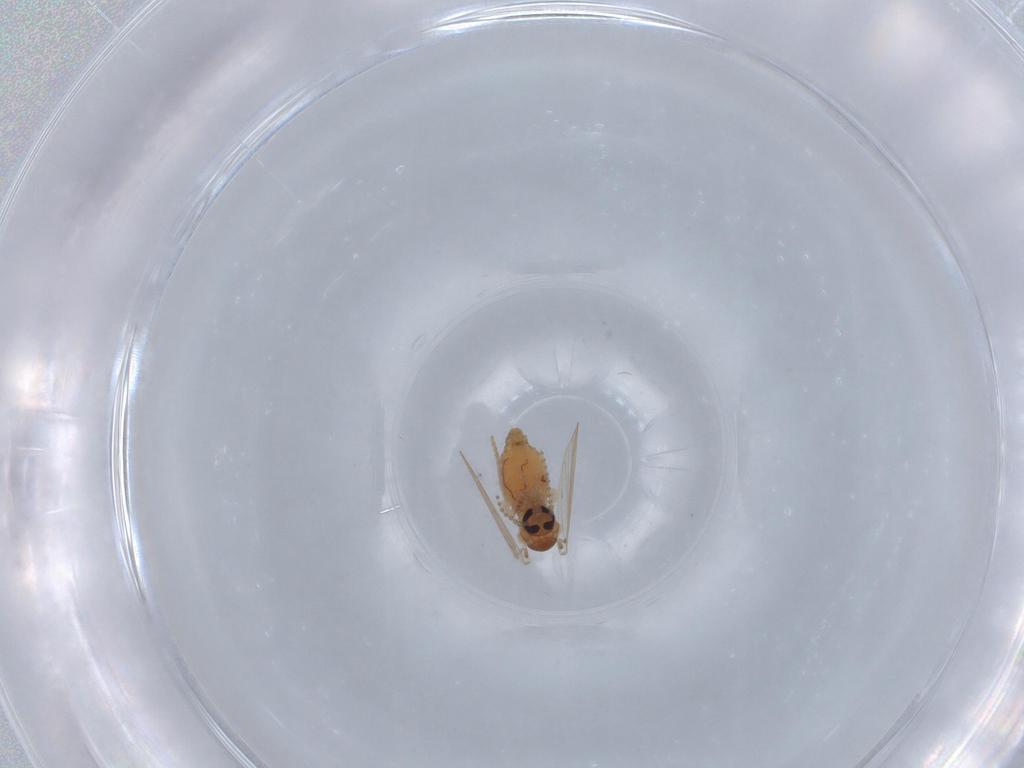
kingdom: Animalia
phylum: Arthropoda
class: Insecta
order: Diptera
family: Psychodidae
